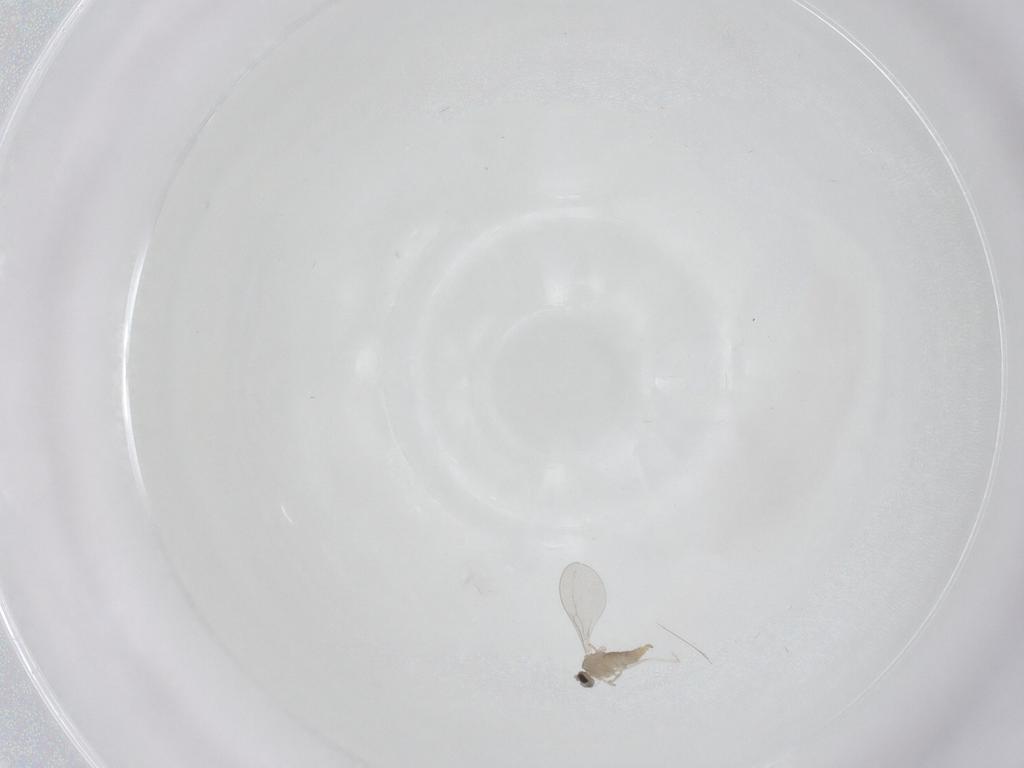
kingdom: Animalia
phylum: Arthropoda
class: Insecta
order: Diptera
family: Cecidomyiidae
